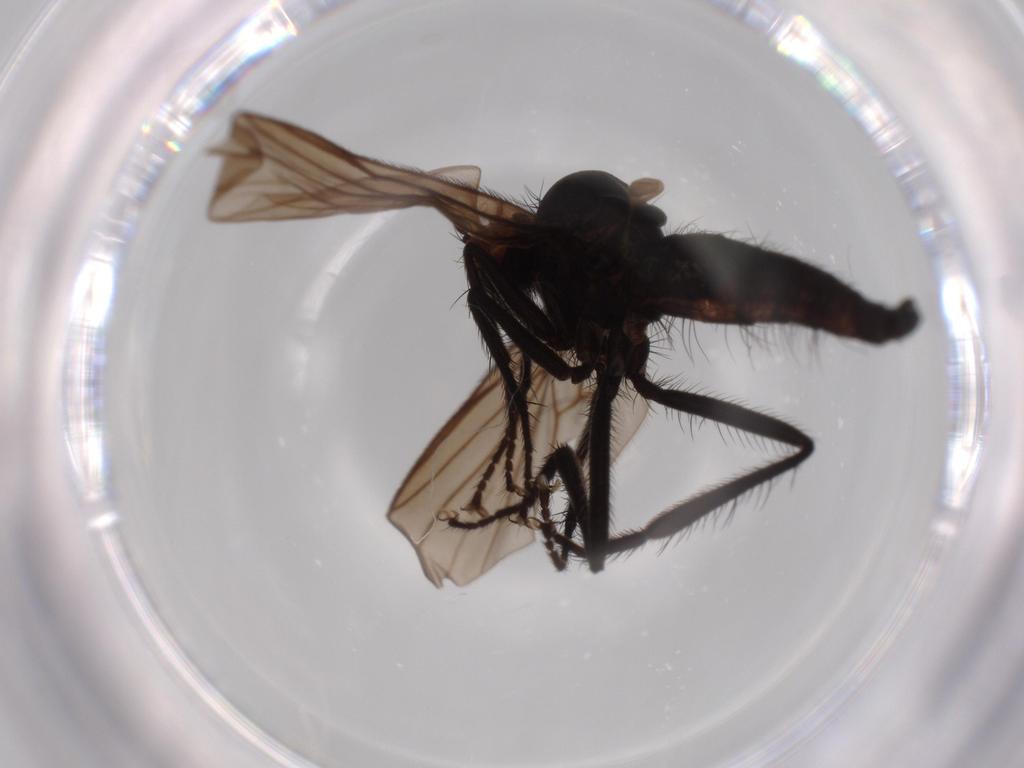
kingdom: Animalia
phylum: Arthropoda
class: Insecta
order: Diptera
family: Hybotidae
